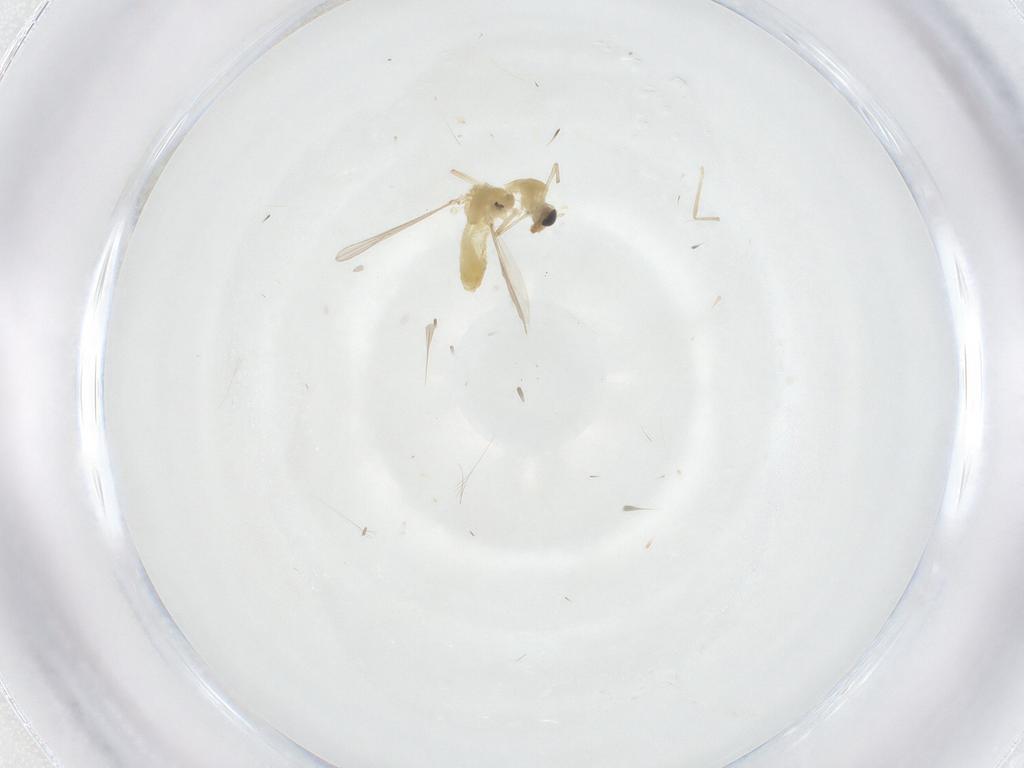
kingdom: Animalia
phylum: Arthropoda
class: Insecta
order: Diptera
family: Chironomidae
